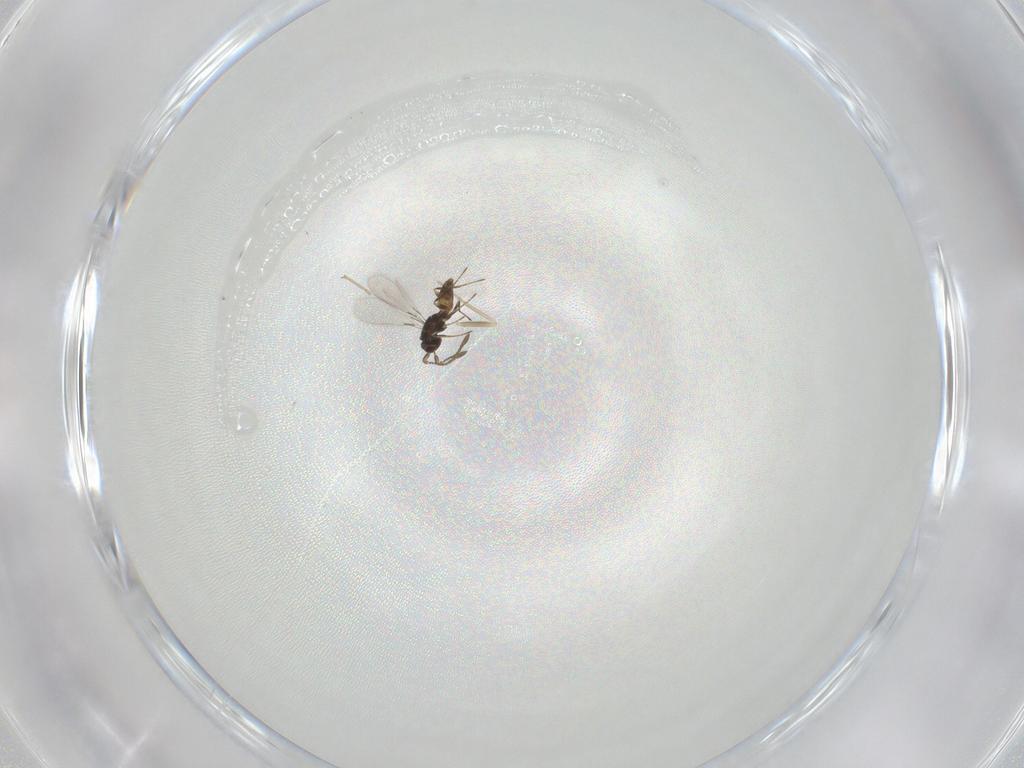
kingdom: Animalia
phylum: Arthropoda
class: Insecta
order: Hymenoptera
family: Mymaridae
